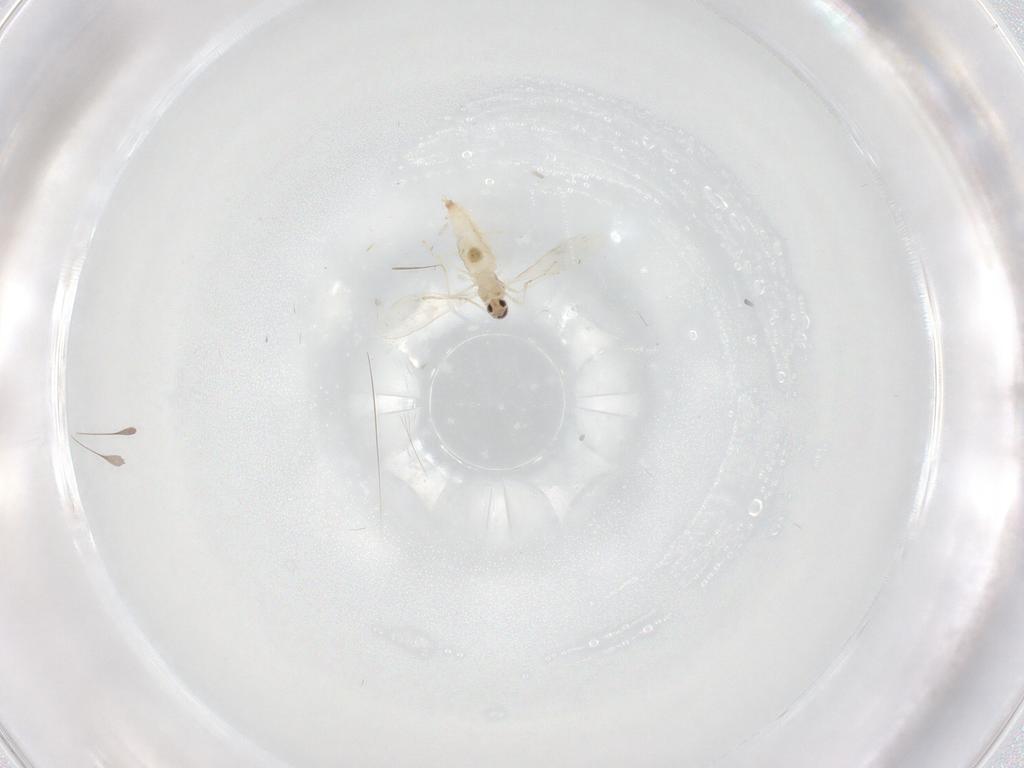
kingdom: Animalia
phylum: Arthropoda
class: Insecta
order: Diptera
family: Cecidomyiidae
